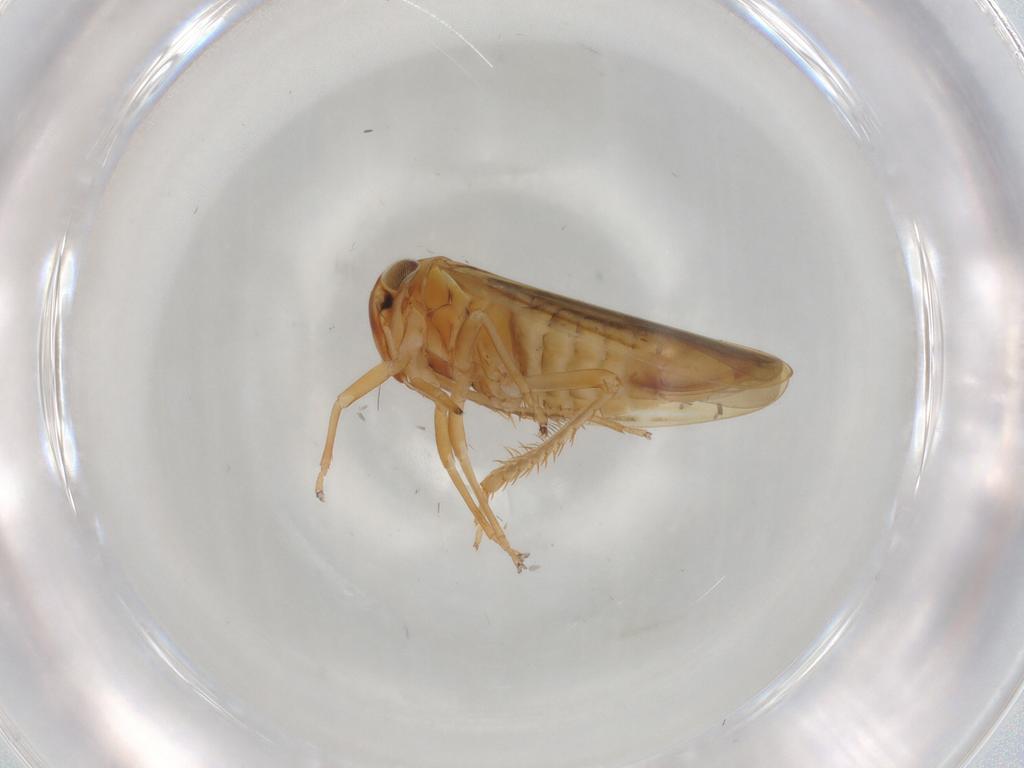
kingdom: Animalia
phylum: Arthropoda
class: Insecta
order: Hemiptera
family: Cicadellidae
